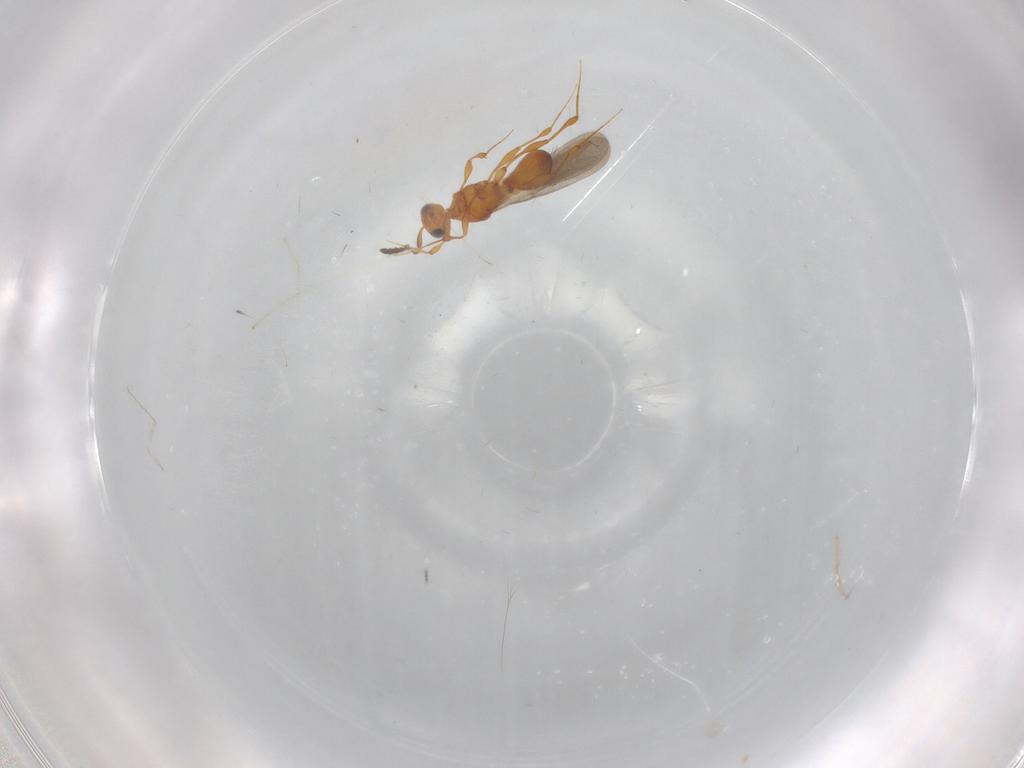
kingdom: Animalia
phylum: Arthropoda
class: Insecta
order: Hymenoptera
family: Platygastridae
